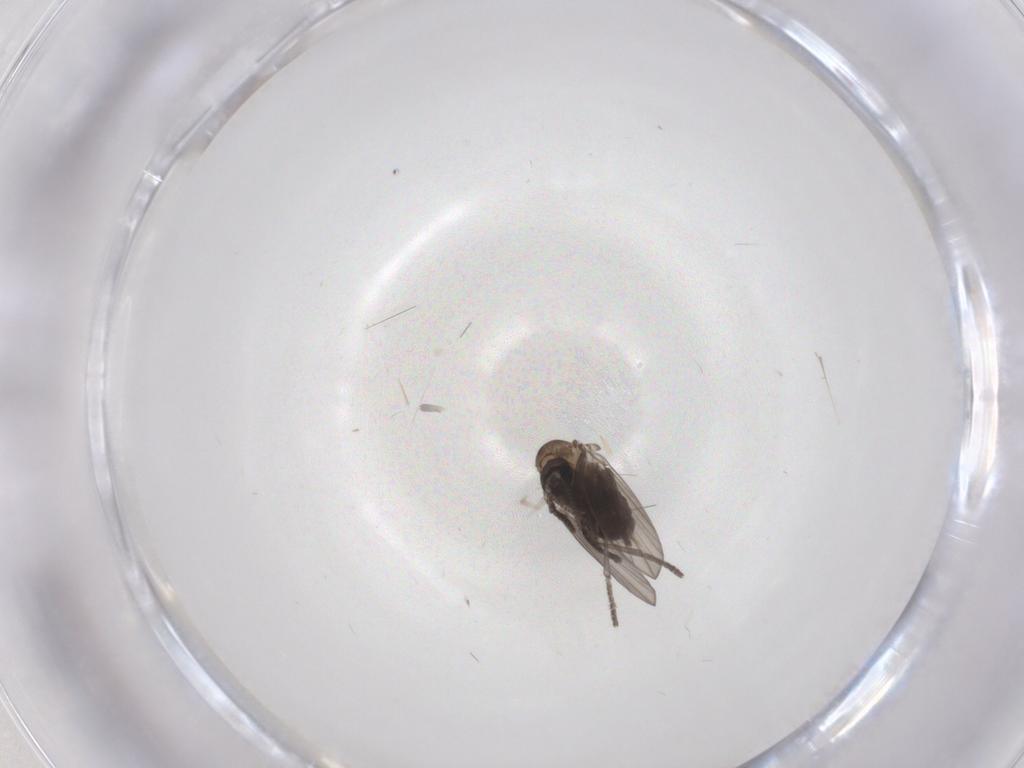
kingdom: Animalia
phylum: Arthropoda
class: Insecta
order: Diptera
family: Psychodidae
